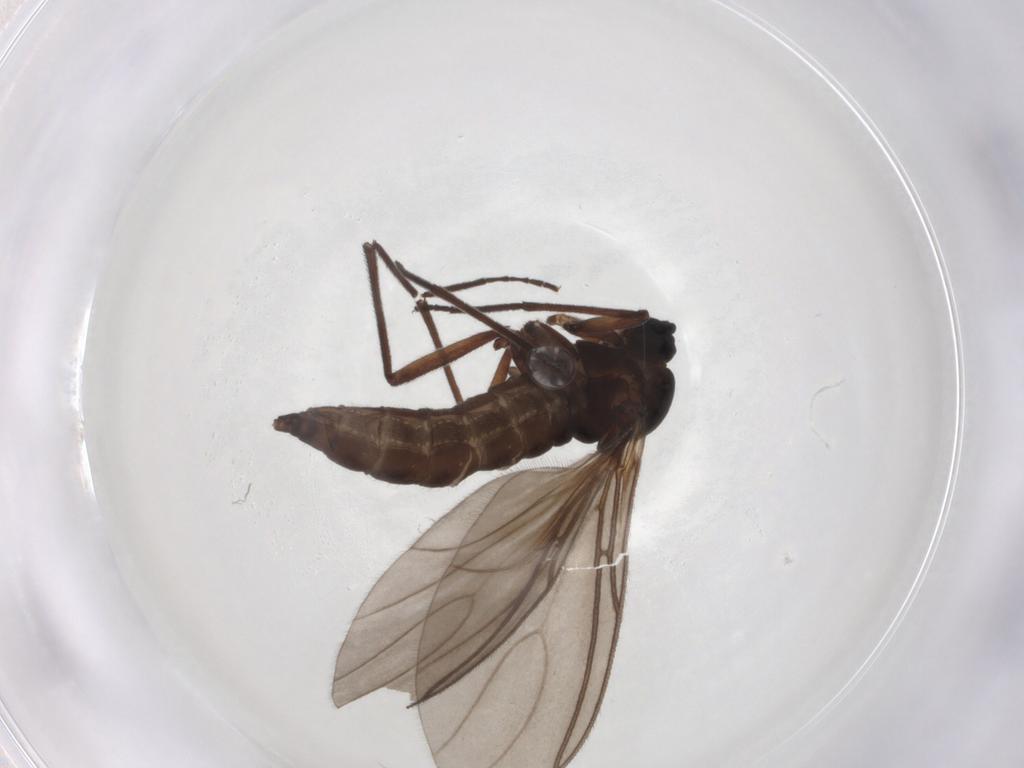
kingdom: Animalia
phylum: Arthropoda
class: Insecta
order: Diptera
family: Sciaridae
